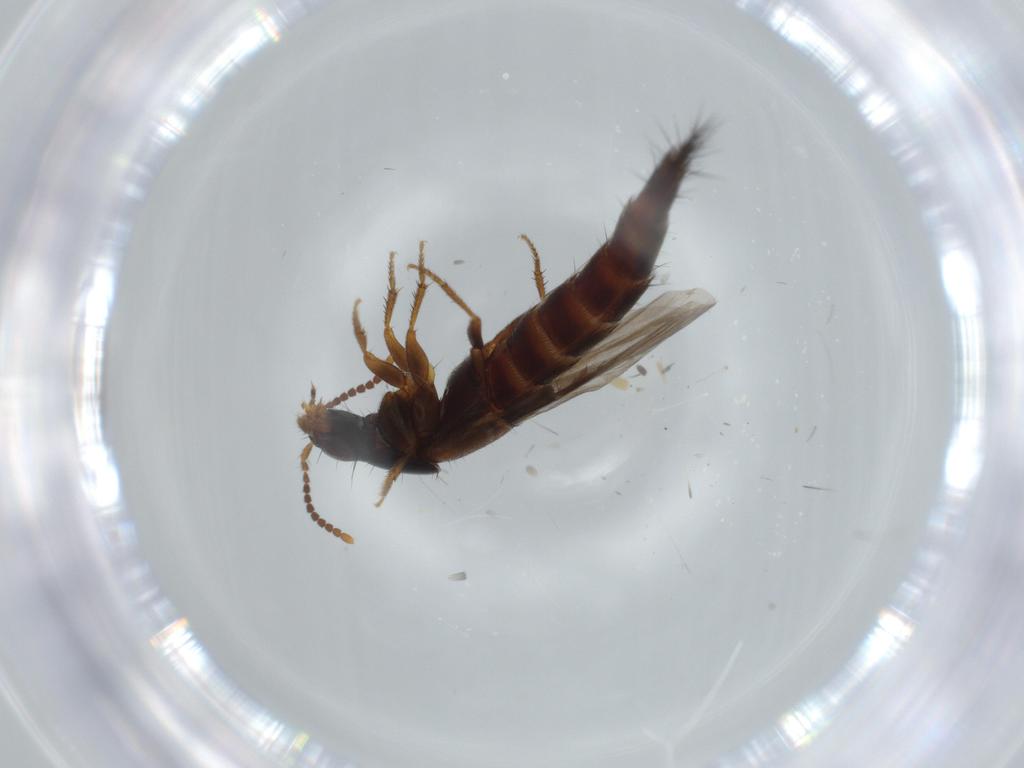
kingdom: Animalia
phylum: Arthropoda
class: Insecta
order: Coleoptera
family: Staphylinidae
